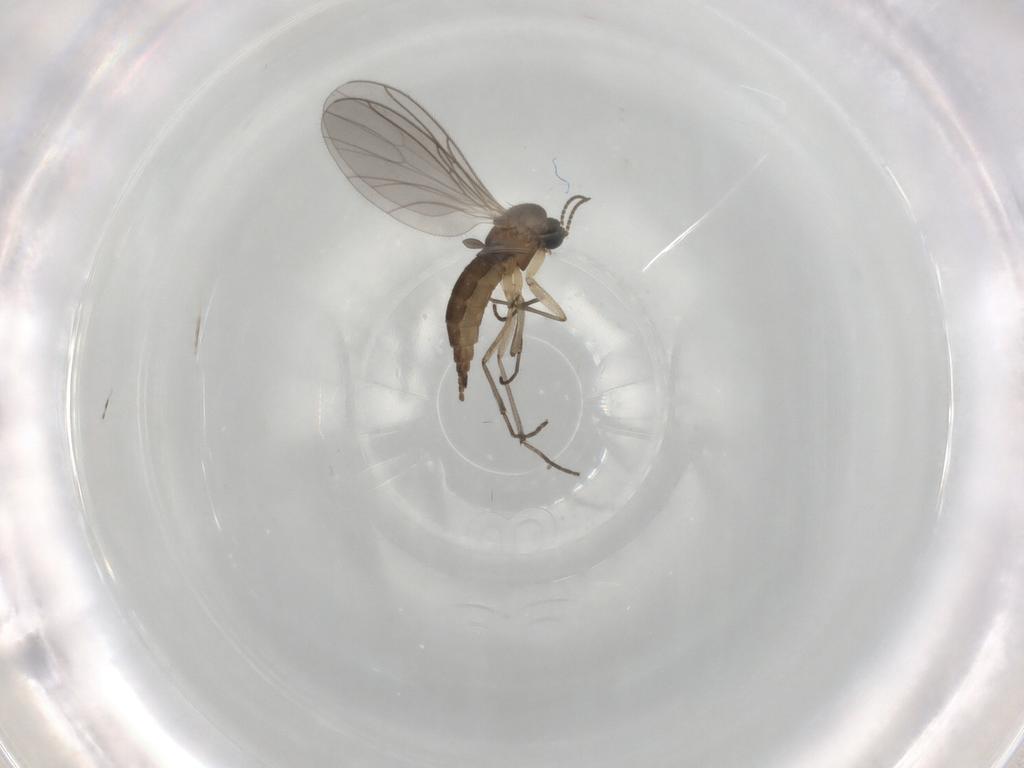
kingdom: Animalia
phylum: Arthropoda
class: Insecta
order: Diptera
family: Sciaridae
